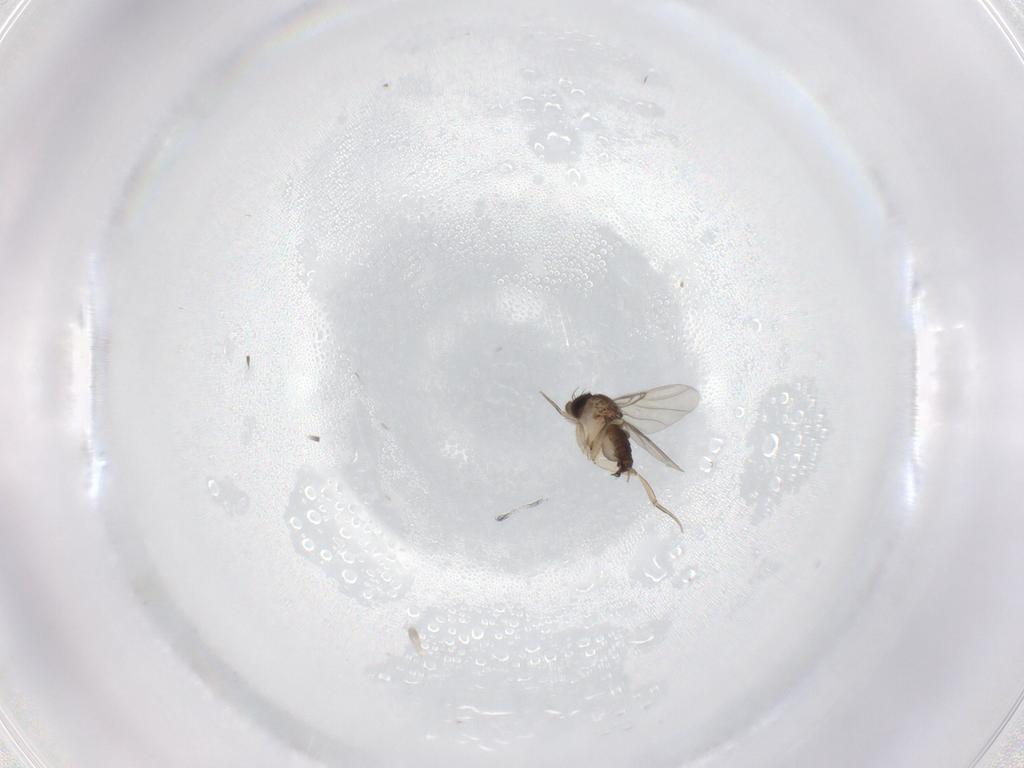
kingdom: Animalia
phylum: Arthropoda
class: Insecta
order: Diptera
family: Phoridae
